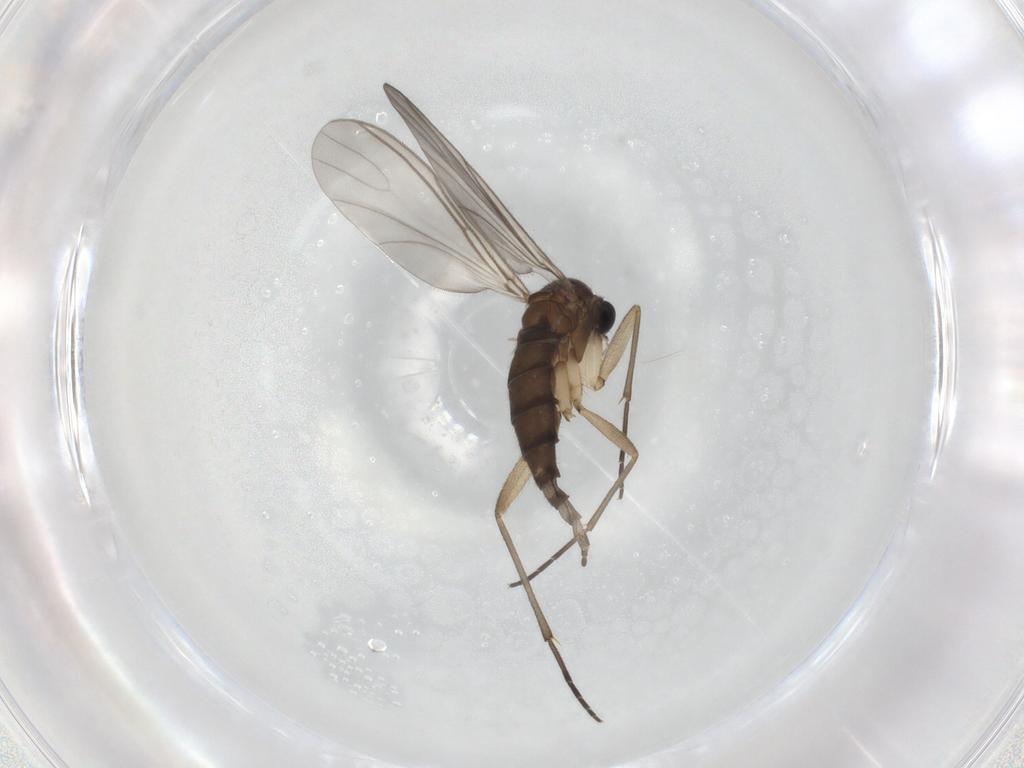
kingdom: Animalia
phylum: Arthropoda
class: Insecta
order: Diptera
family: Sciaridae
